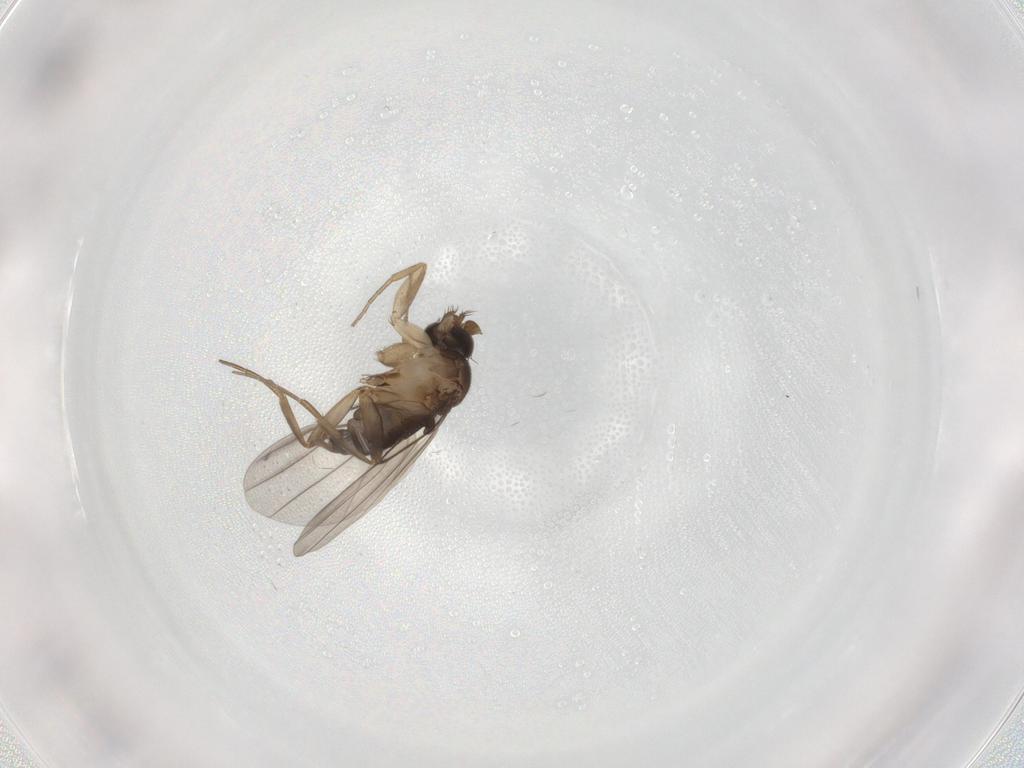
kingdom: Animalia
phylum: Arthropoda
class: Insecta
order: Diptera
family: Phoridae
